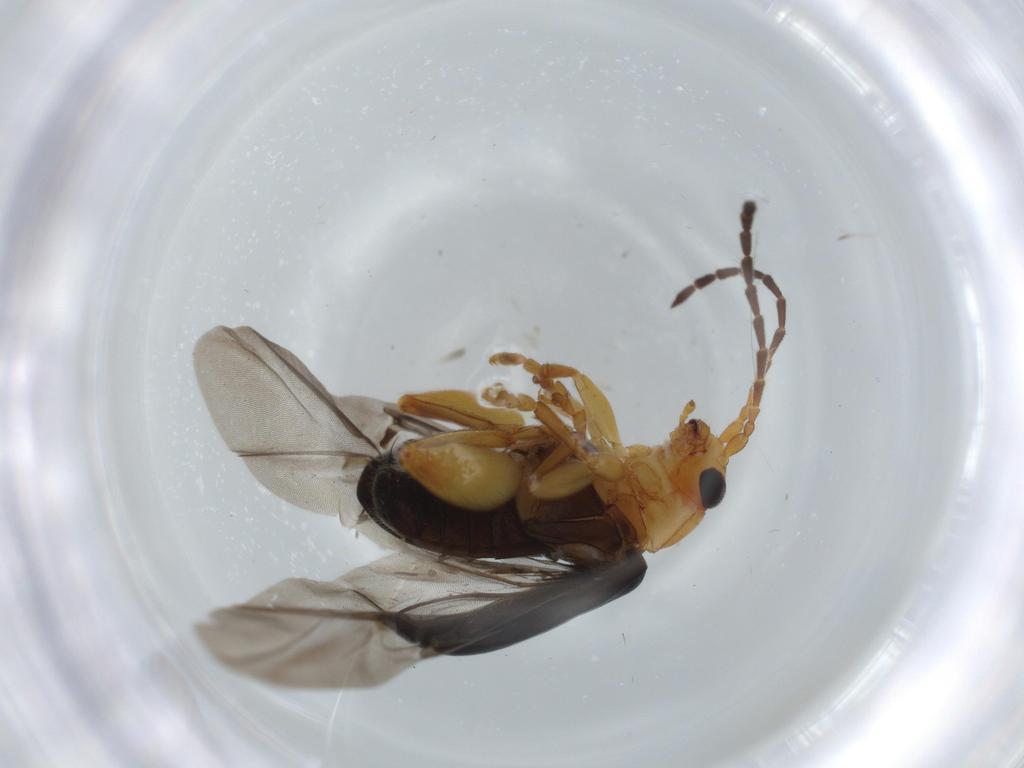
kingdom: Animalia
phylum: Arthropoda
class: Insecta
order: Coleoptera
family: Chrysomelidae
